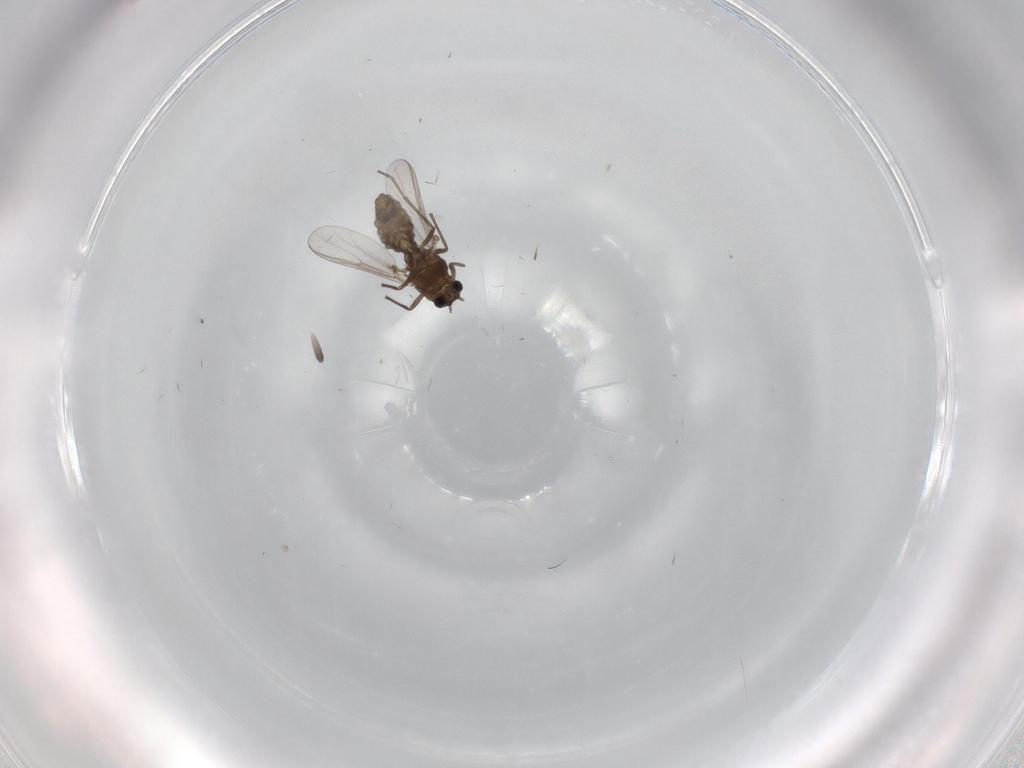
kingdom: Animalia
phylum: Arthropoda
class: Insecta
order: Diptera
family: Chironomidae
